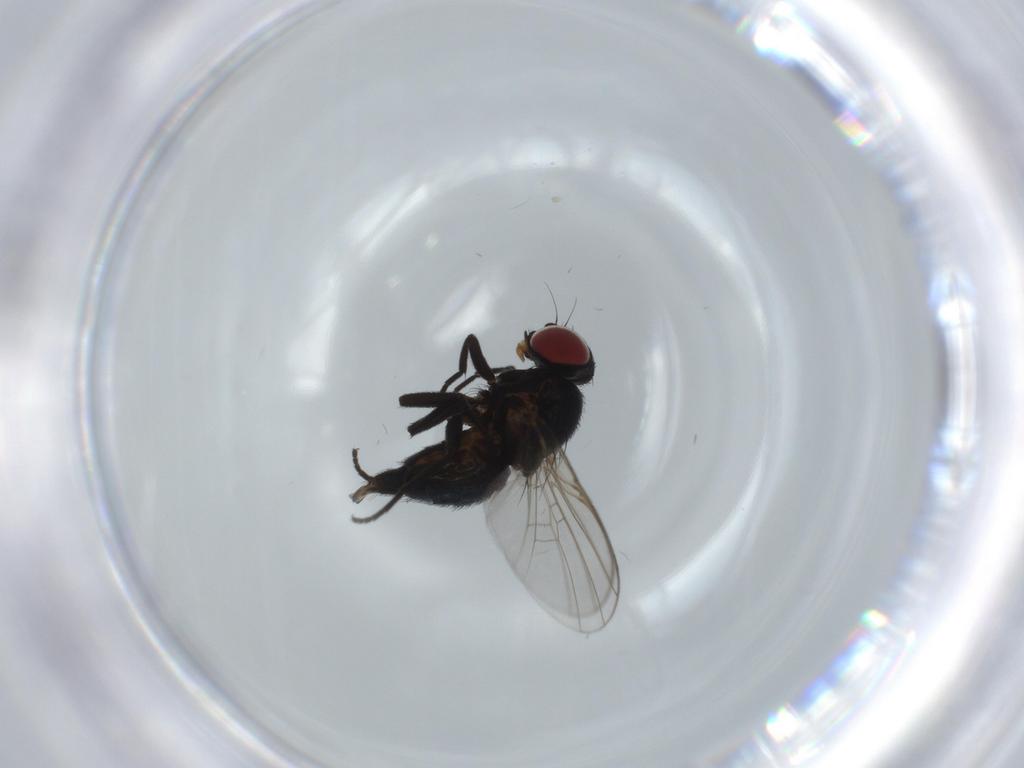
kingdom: Animalia
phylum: Arthropoda
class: Insecta
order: Diptera
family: Agromyzidae
